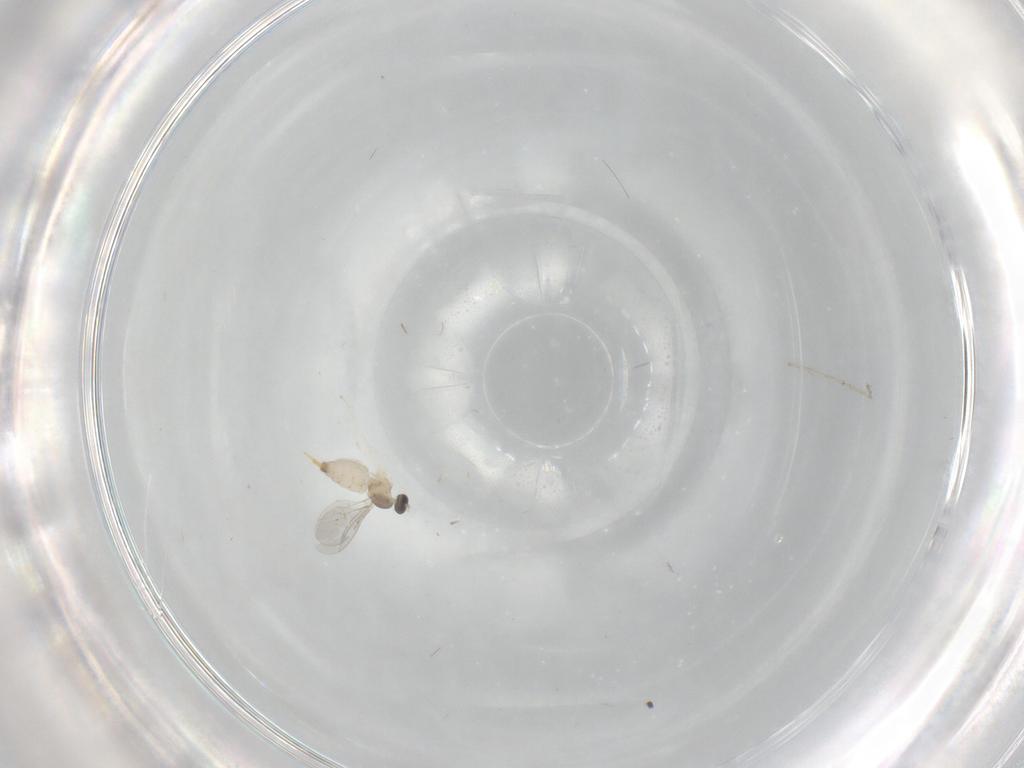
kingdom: Animalia
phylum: Arthropoda
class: Insecta
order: Diptera
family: Cecidomyiidae
